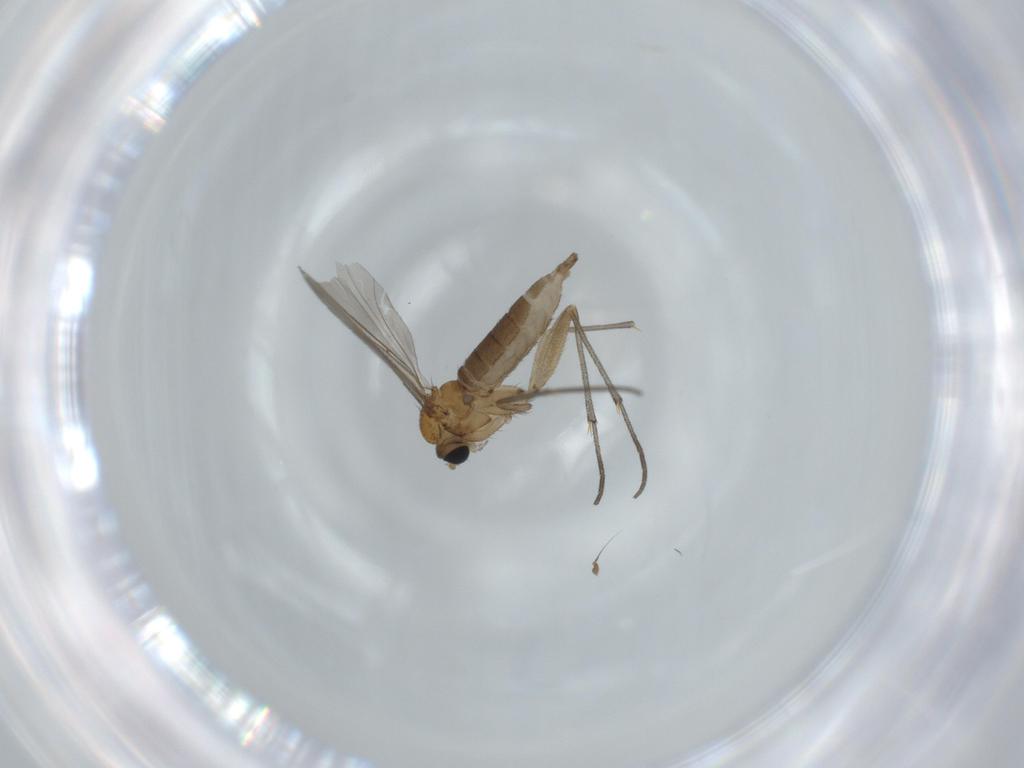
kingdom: Animalia
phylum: Arthropoda
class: Insecta
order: Diptera
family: Sciaridae
